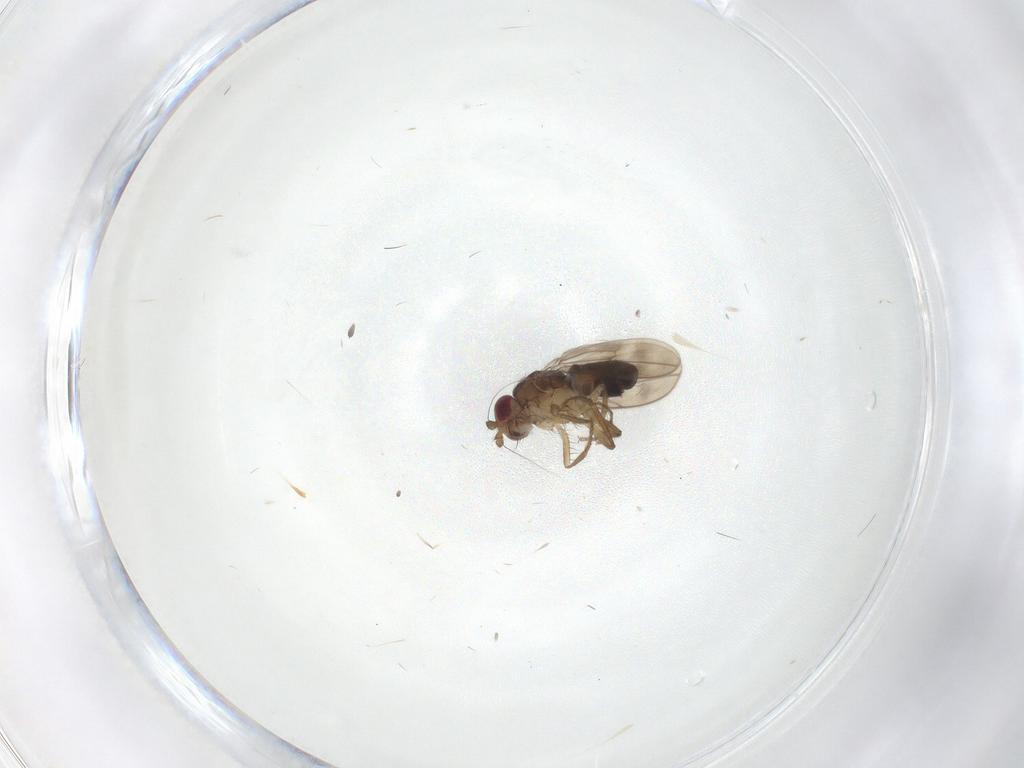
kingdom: Animalia
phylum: Arthropoda
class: Insecta
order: Diptera
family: Sphaeroceridae
